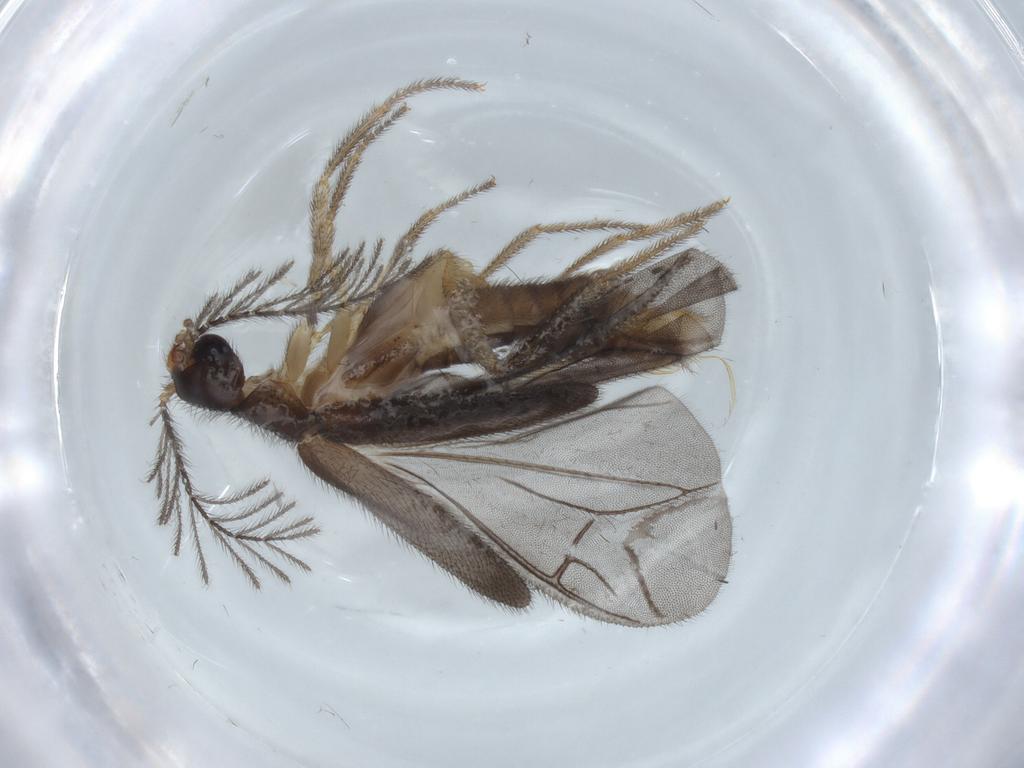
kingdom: Animalia
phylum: Arthropoda
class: Insecta
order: Coleoptera
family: Phengodidae
